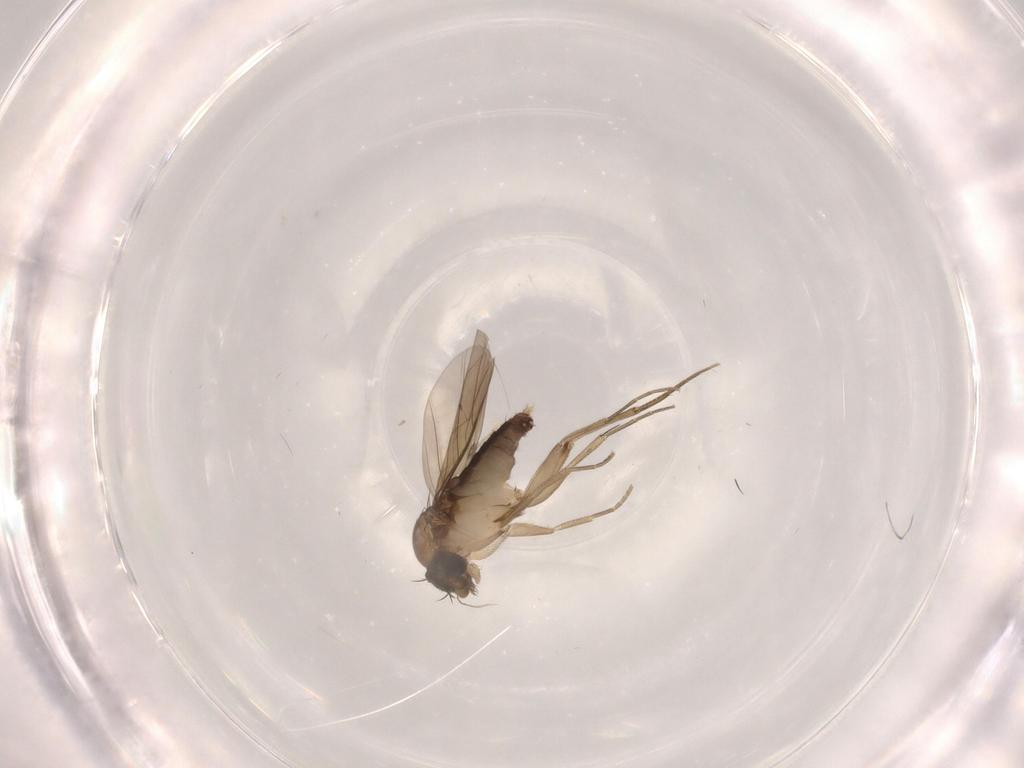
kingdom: Animalia
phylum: Arthropoda
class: Insecta
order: Diptera
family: Phoridae
